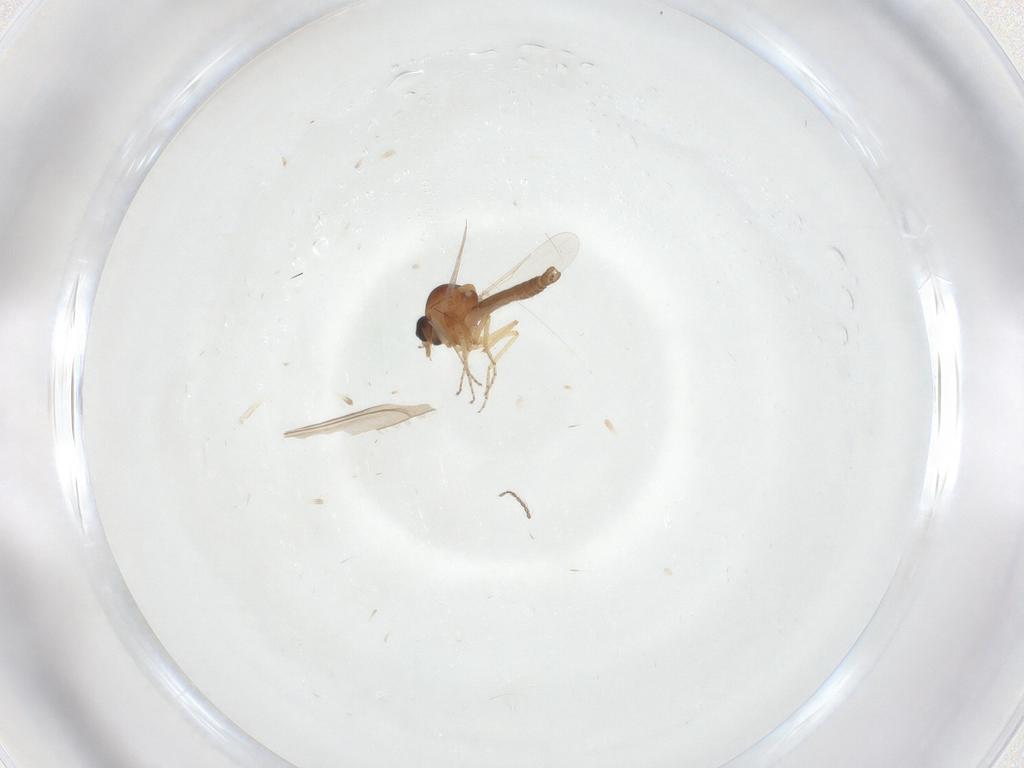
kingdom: Animalia
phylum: Arthropoda
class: Insecta
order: Diptera
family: Ceratopogonidae
